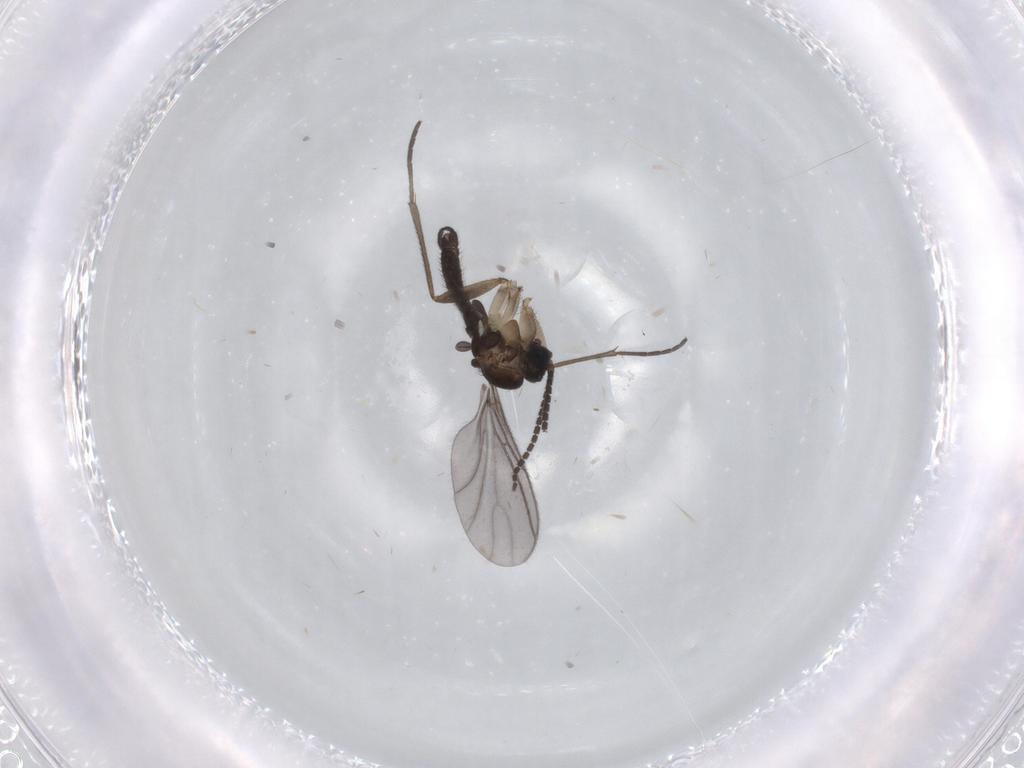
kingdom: Animalia
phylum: Arthropoda
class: Insecta
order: Diptera
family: Sciaridae
